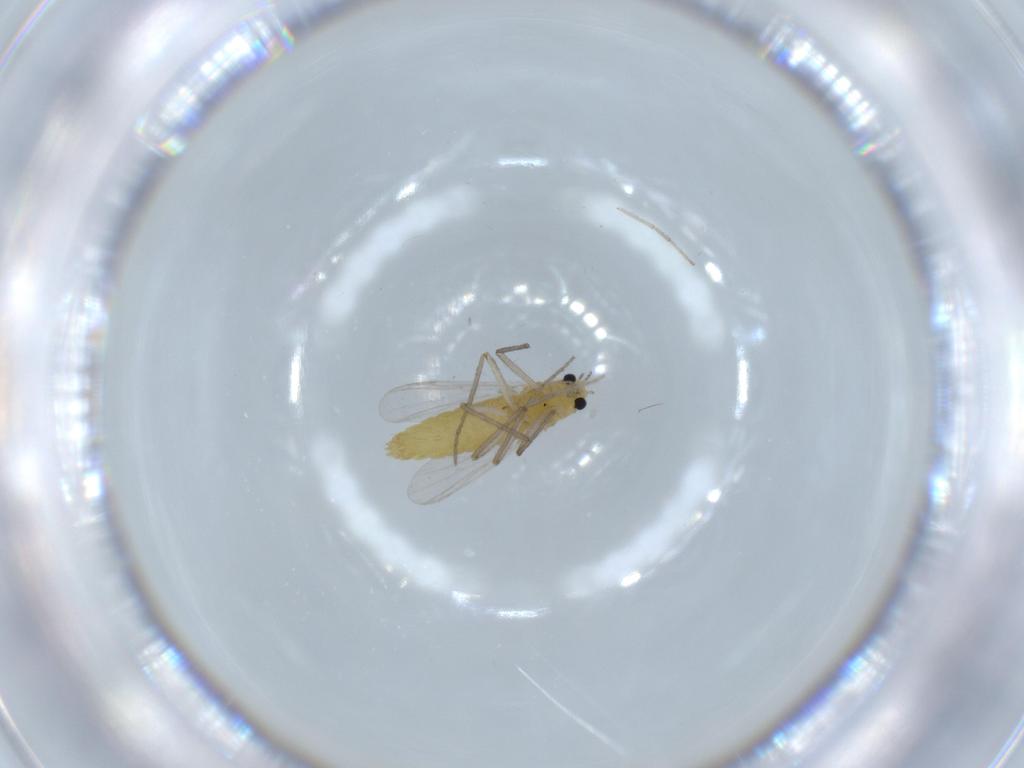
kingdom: Animalia
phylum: Arthropoda
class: Insecta
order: Diptera
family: Chironomidae
